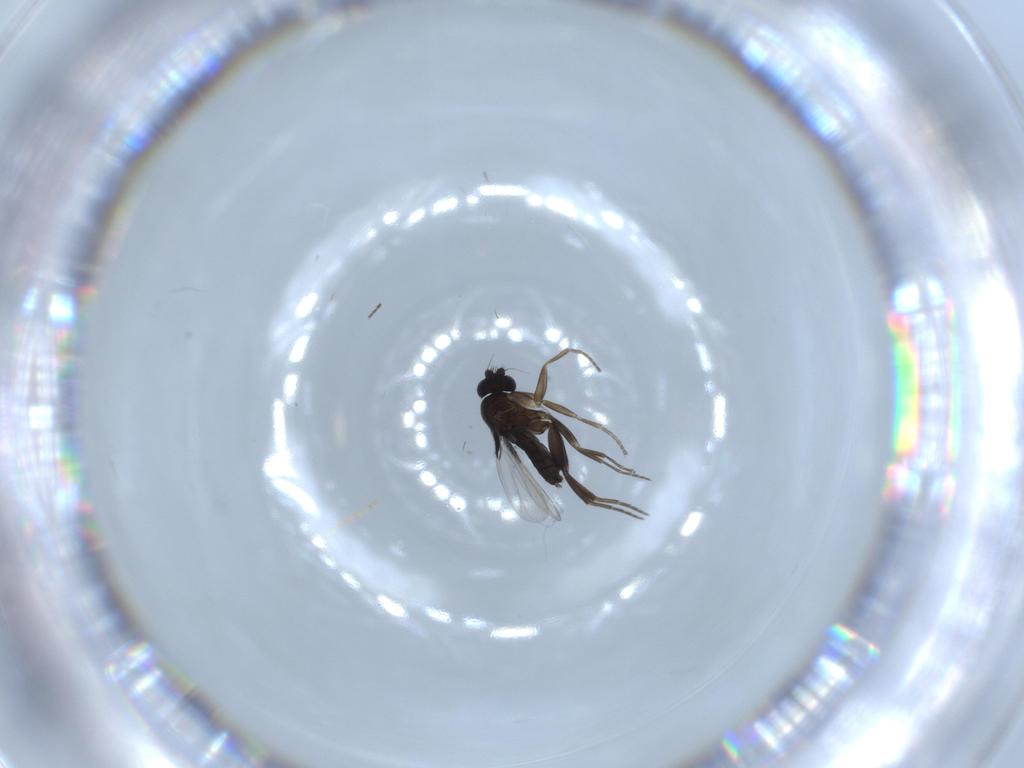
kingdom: Animalia
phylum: Arthropoda
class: Insecta
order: Diptera
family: Phoridae
